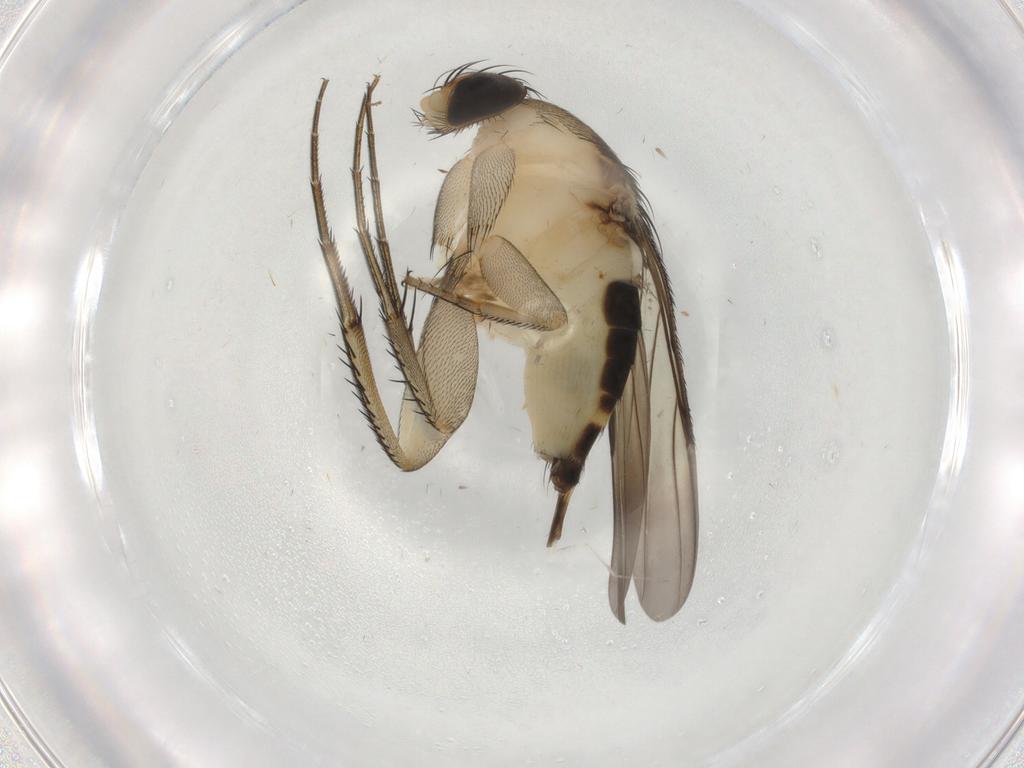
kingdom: Animalia
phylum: Arthropoda
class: Insecta
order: Diptera
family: Phoridae
